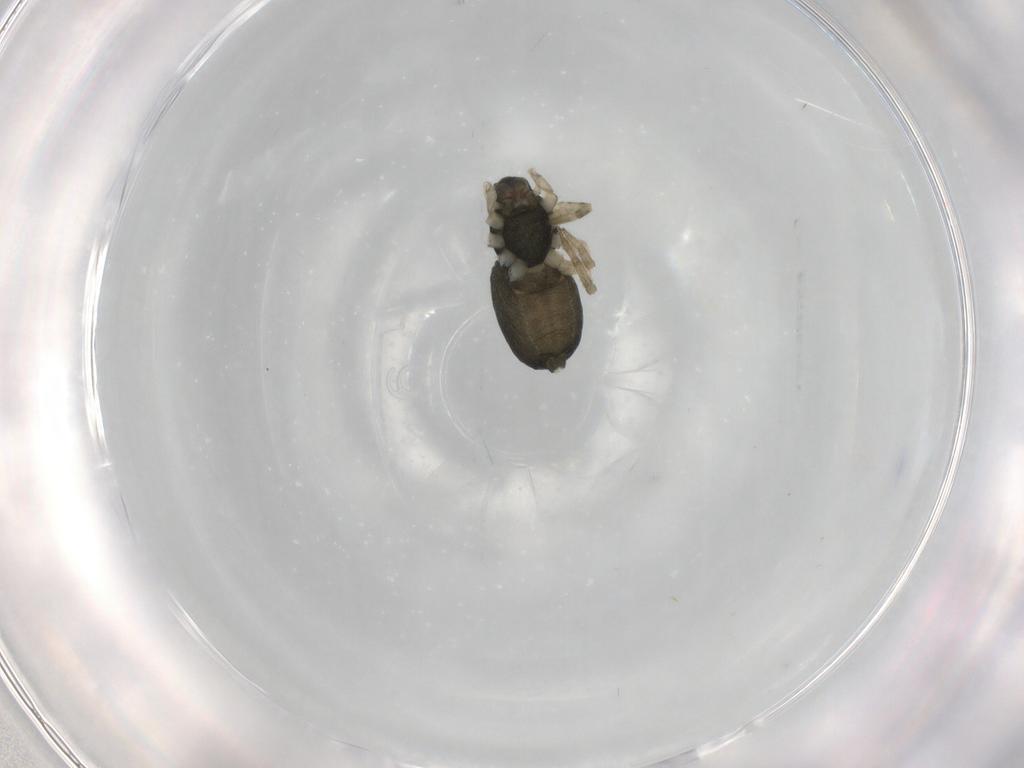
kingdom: Animalia
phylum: Arthropoda
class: Arachnida
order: Araneae
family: Trachelidae
